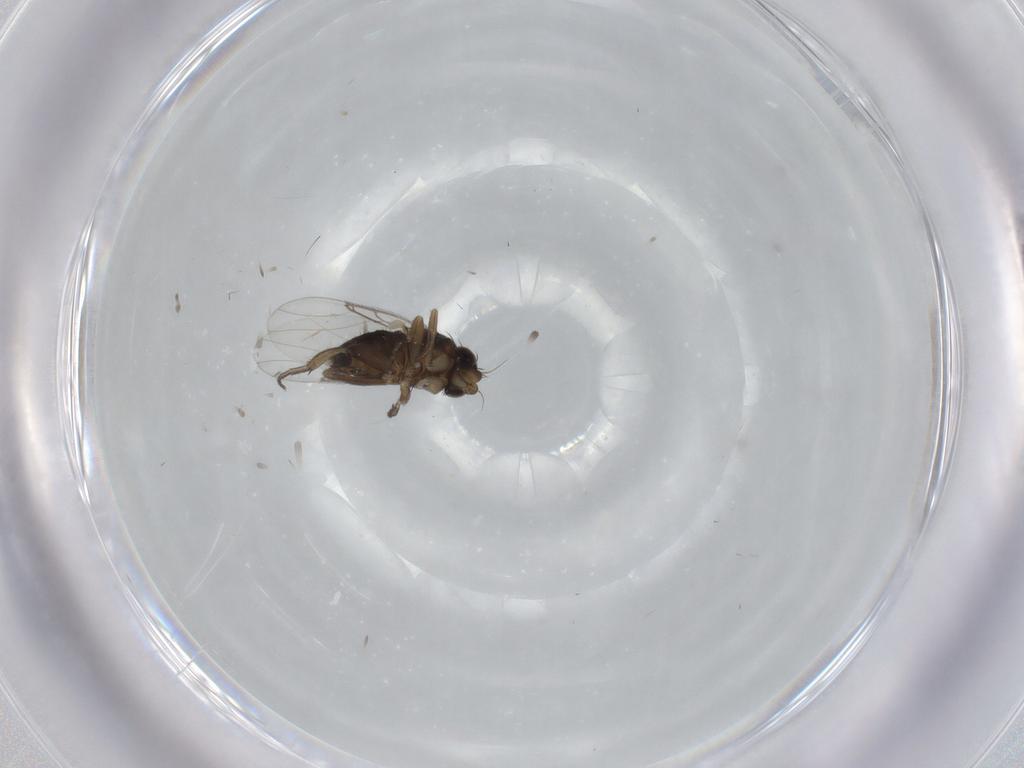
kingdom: Animalia
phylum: Arthropoda
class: Insecta
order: Diptera
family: Phoridae
